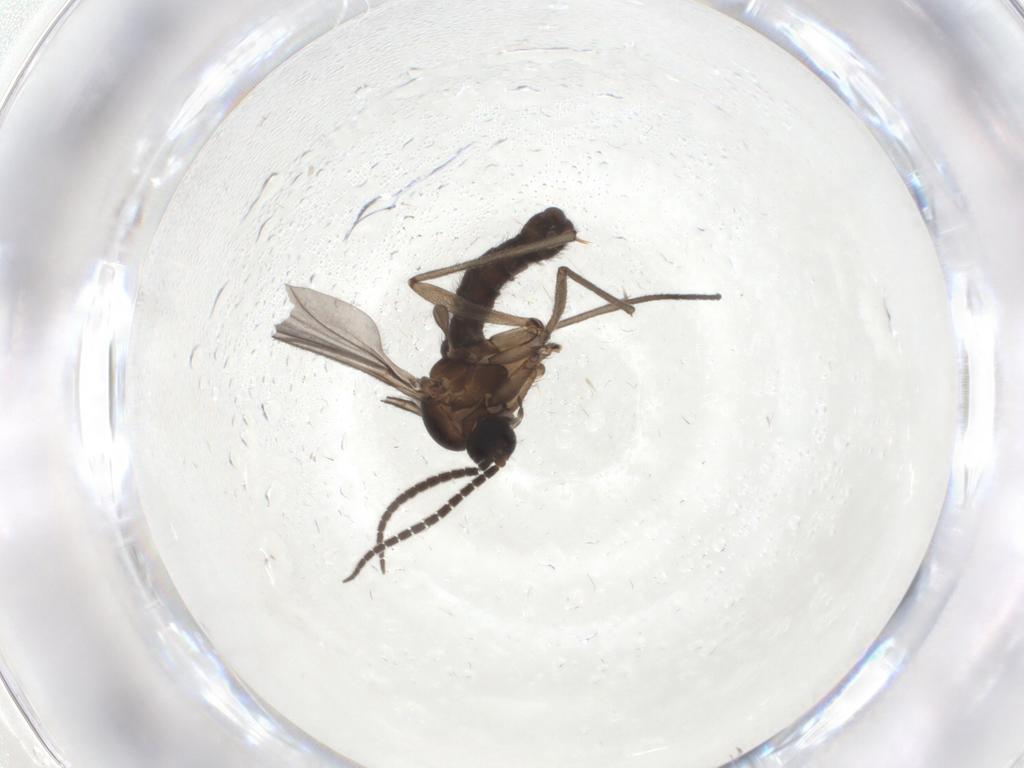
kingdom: Animalia
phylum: Arthropoda
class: Insecta
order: Diptera
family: Sciaridae
